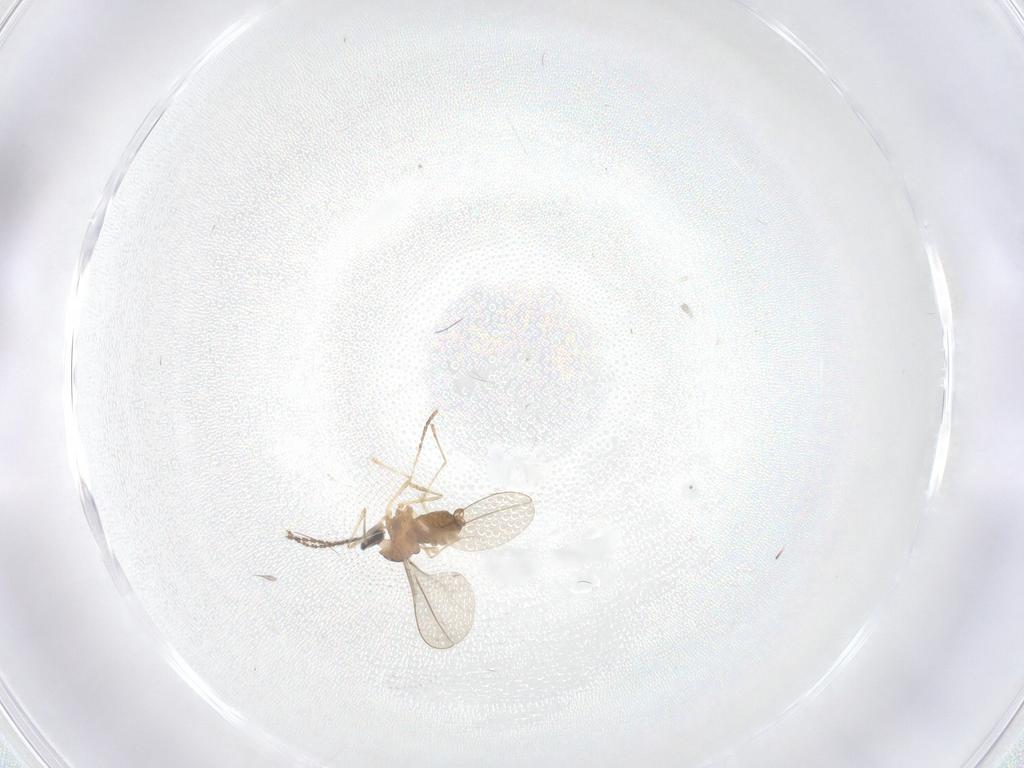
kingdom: Animalia
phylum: Arthropoda
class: Insecta
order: Diptera
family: Cecidomyiidae
